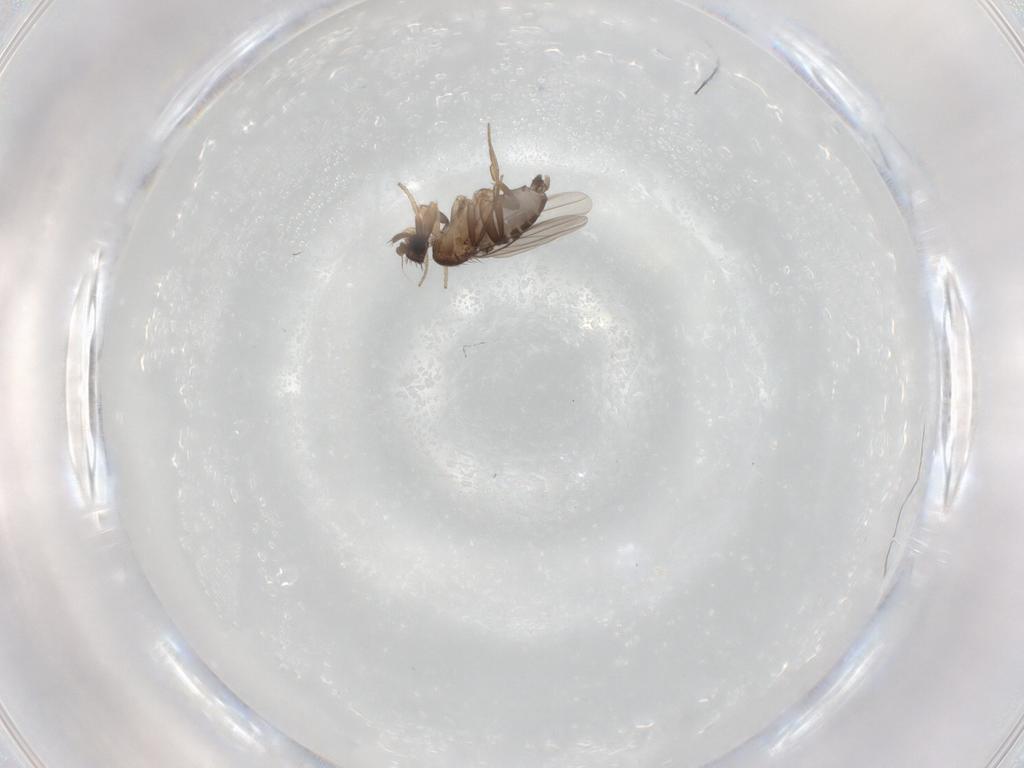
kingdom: Animalia
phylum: Arthropoda
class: Insecta
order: Diptera
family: Phoridae
